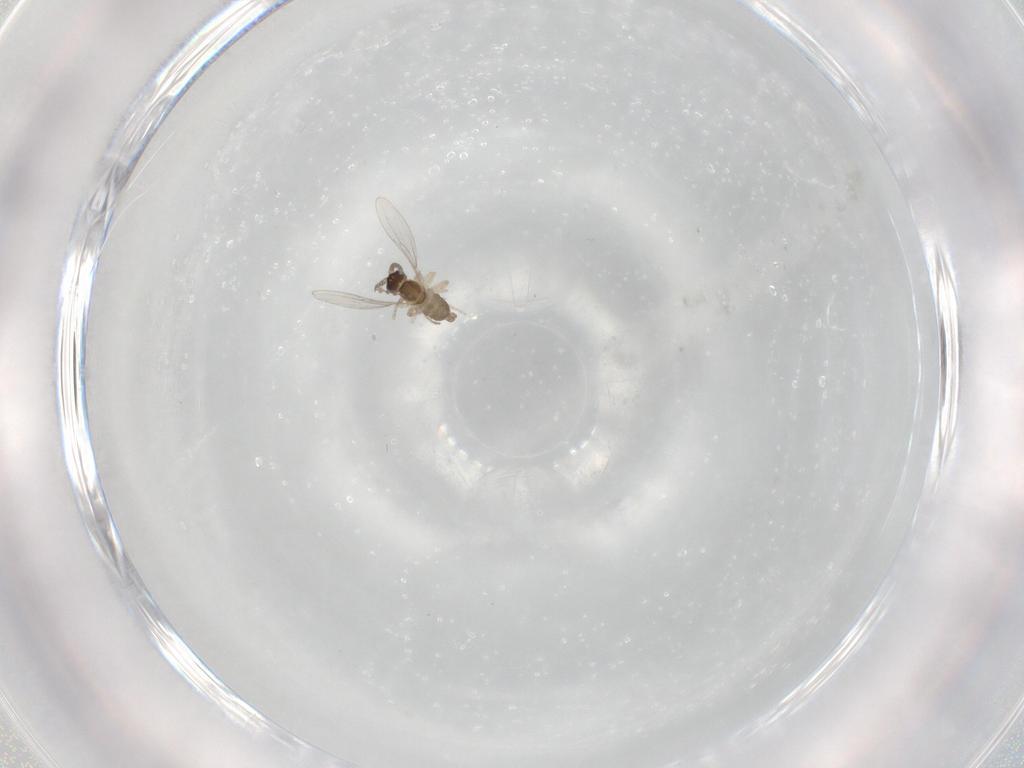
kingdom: Animalia
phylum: Arthropoda
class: Insecta
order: Diptera
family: Cecidomyiidae
